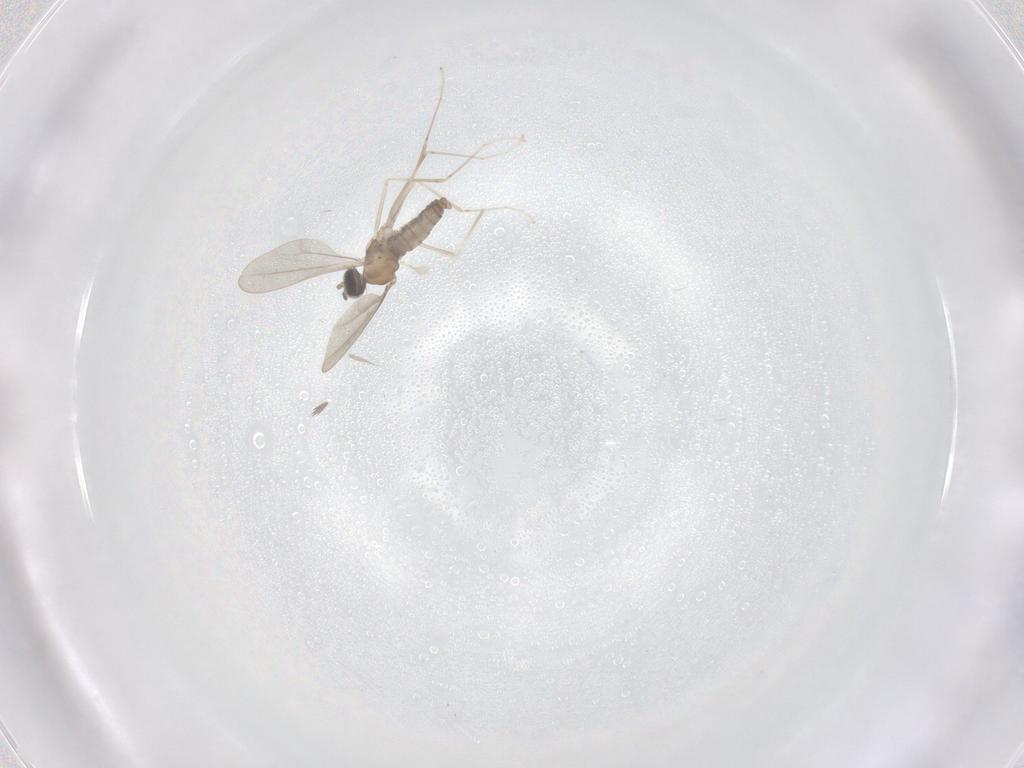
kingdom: Animalia
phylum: Arthropoda
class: Insecta
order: Diptera
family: Cecidomyiidae
